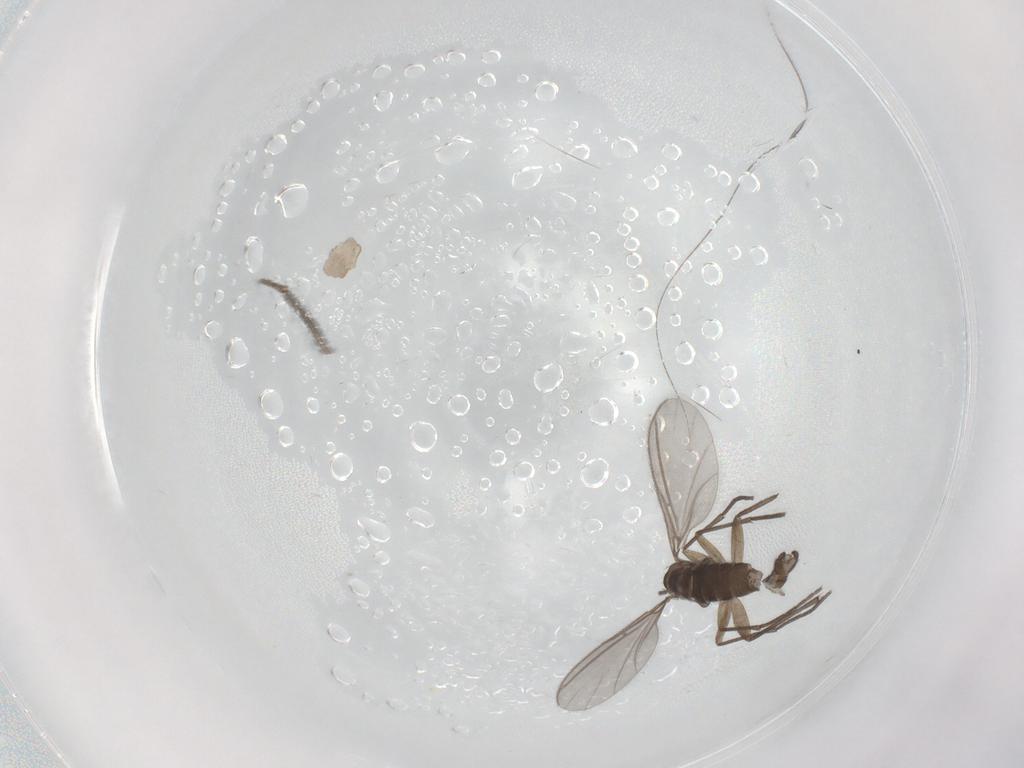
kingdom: Animalia
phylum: Arthropoda
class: Insecta
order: Diptera
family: Sciaridae
